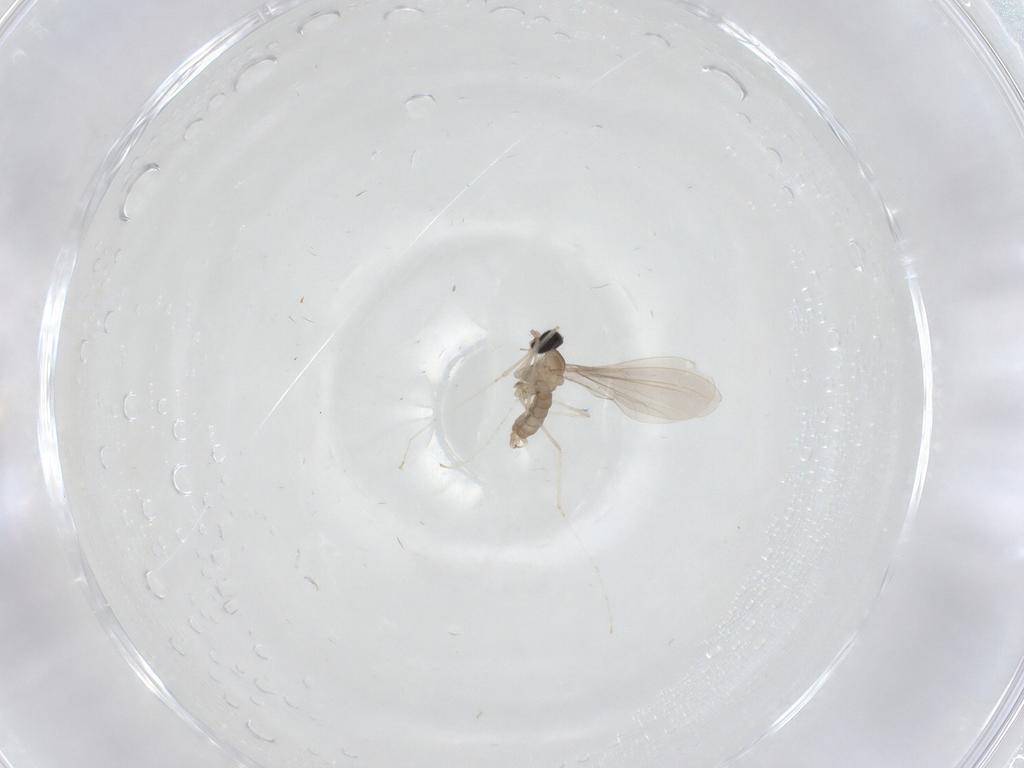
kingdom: Animalia
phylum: Arthropoda
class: Insecta
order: Diptera
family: Cecidomyiidae
